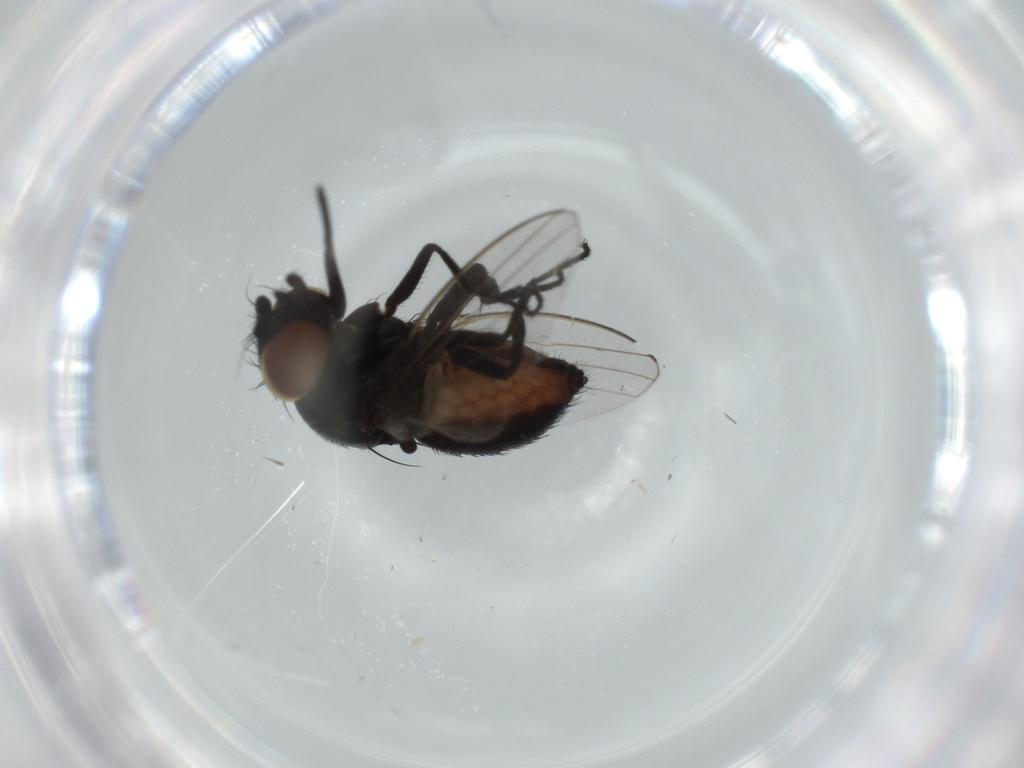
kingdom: Animalia
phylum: Arthropoda
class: Insecta
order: Diptera
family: Milichiidae
